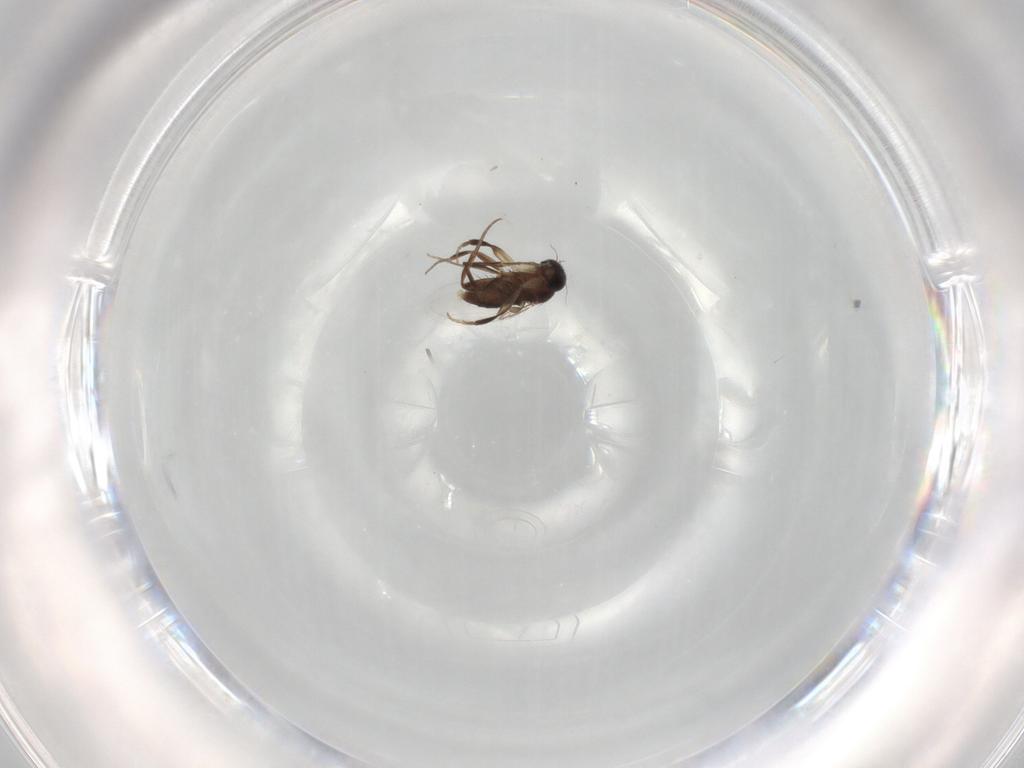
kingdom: Animalia
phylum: Arthropoda
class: Insecta
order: Diptera
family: Phoridae
